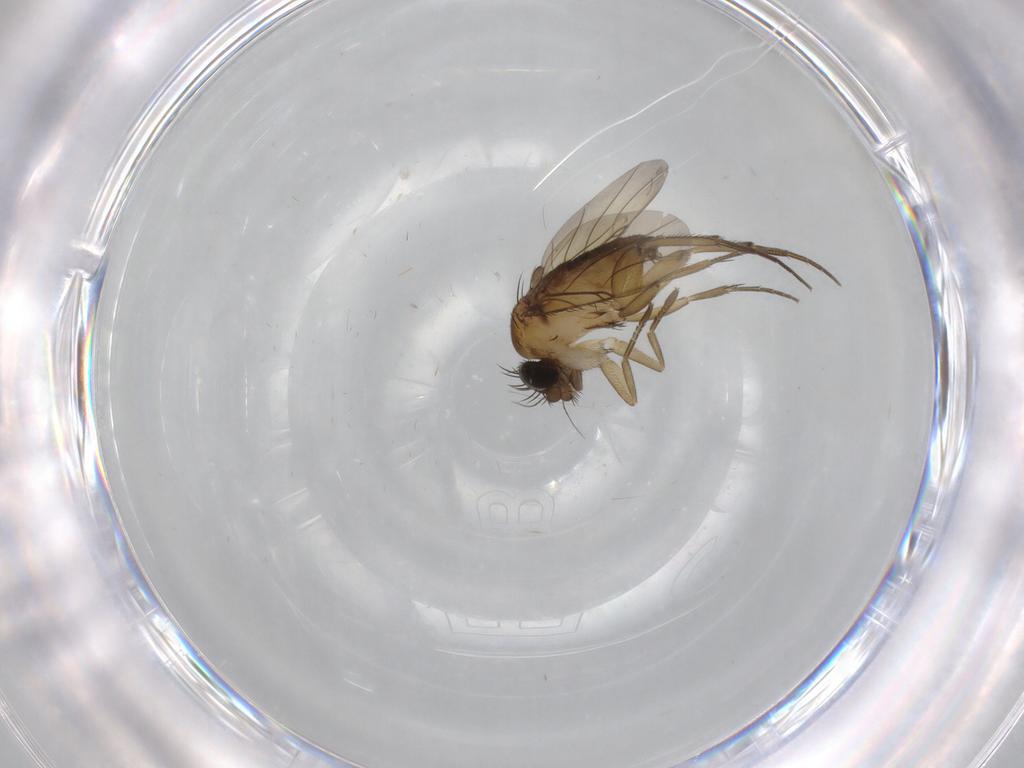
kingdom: Animalia
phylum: Arthropoda
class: Insecta
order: Diptera
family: Phoridae
